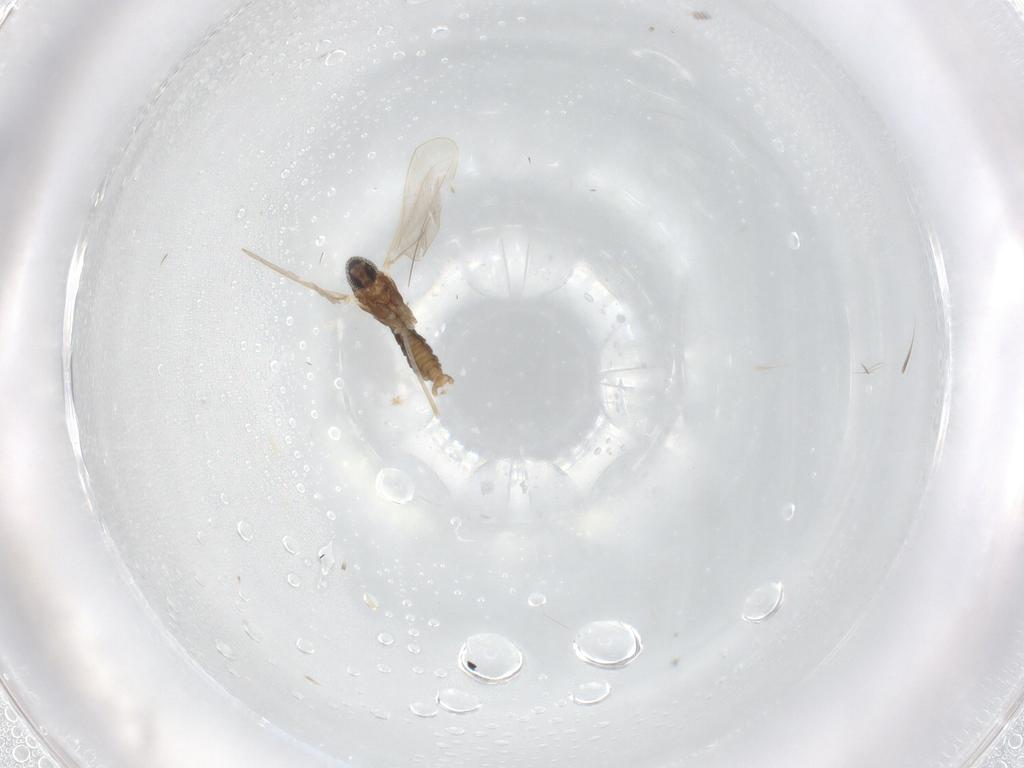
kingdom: Animalia
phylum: Arthropoda
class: Insecta
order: Diptera
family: Cecidomyiidae
